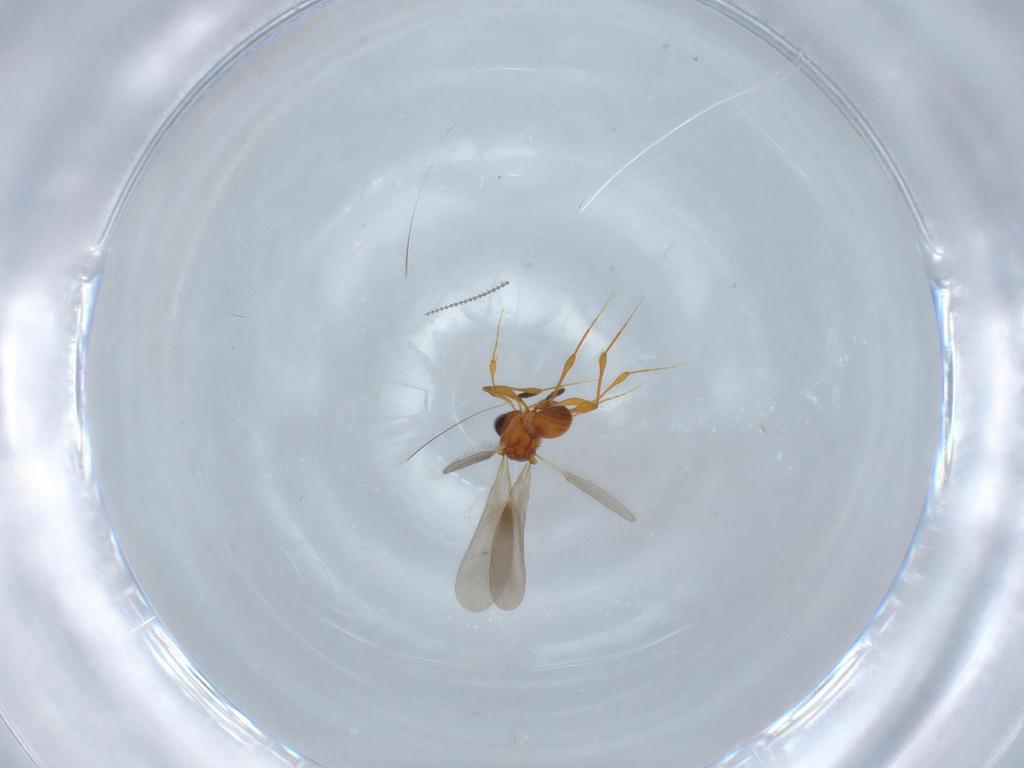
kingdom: Animalia
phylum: Arthropoda
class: Insecta
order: Hymenoptera
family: Platygastridae
